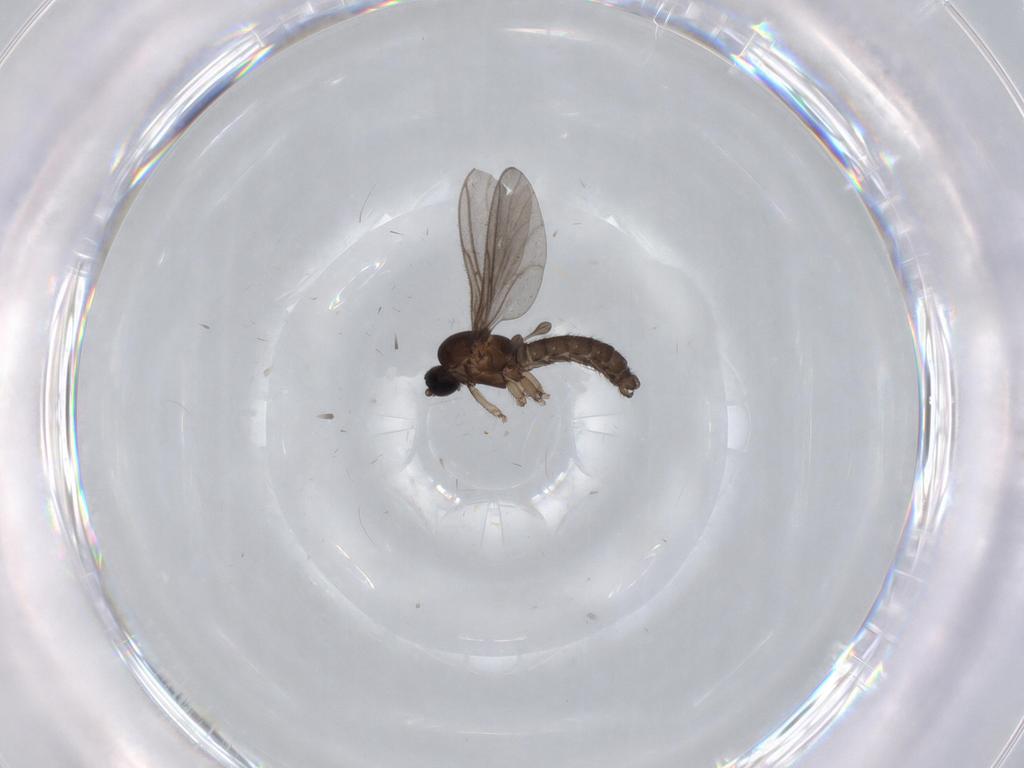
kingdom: Animalia
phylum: Arthropoda
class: Insecta
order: Diptera
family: Cecidomyiidae
